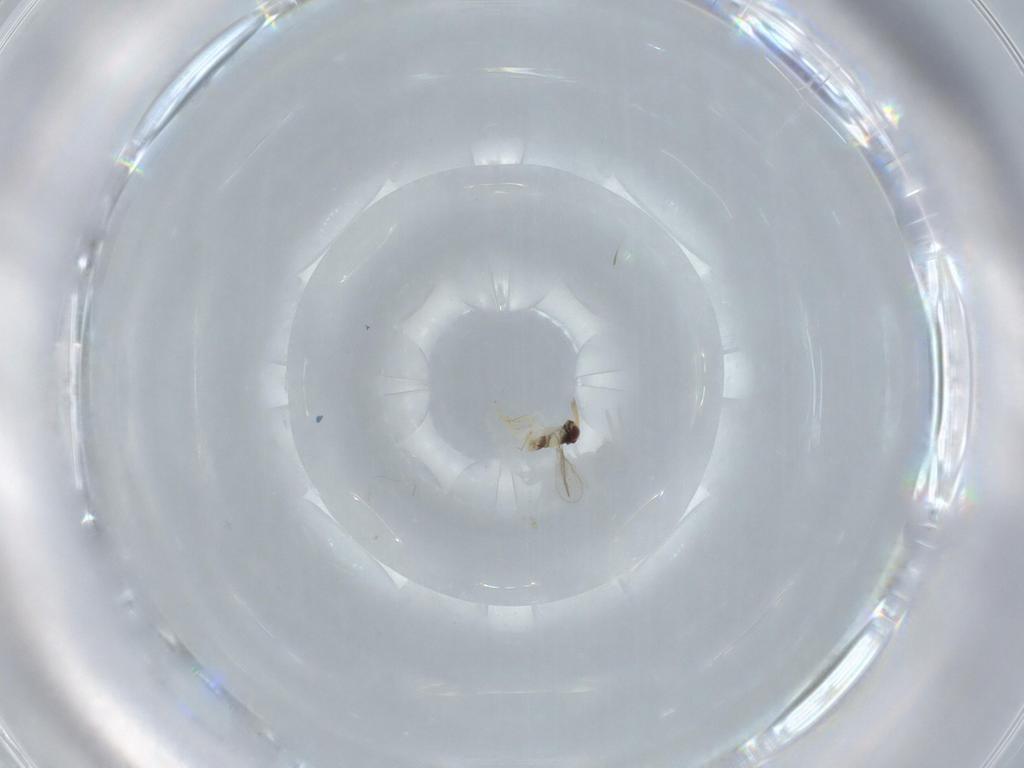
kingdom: Animalia
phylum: Arthropoda
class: Insecta
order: Hymenoptera
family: Aphelinidae
